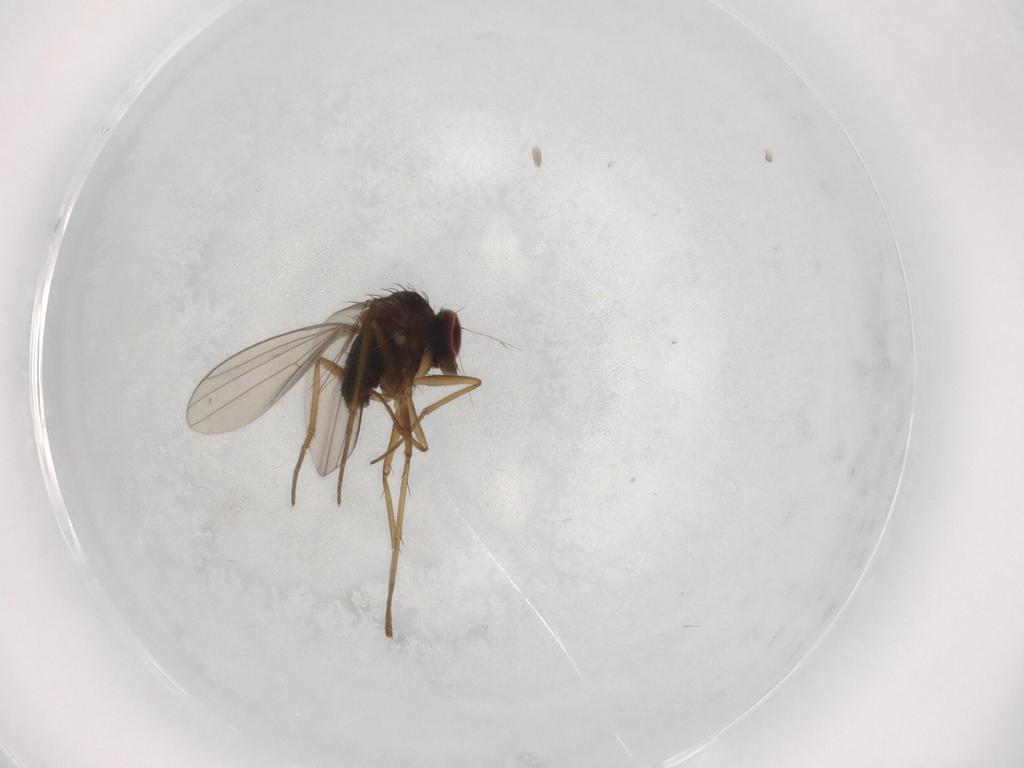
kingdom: Animalia
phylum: Arthropoda
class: Insecta
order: Diptera
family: Dolichopodidae
